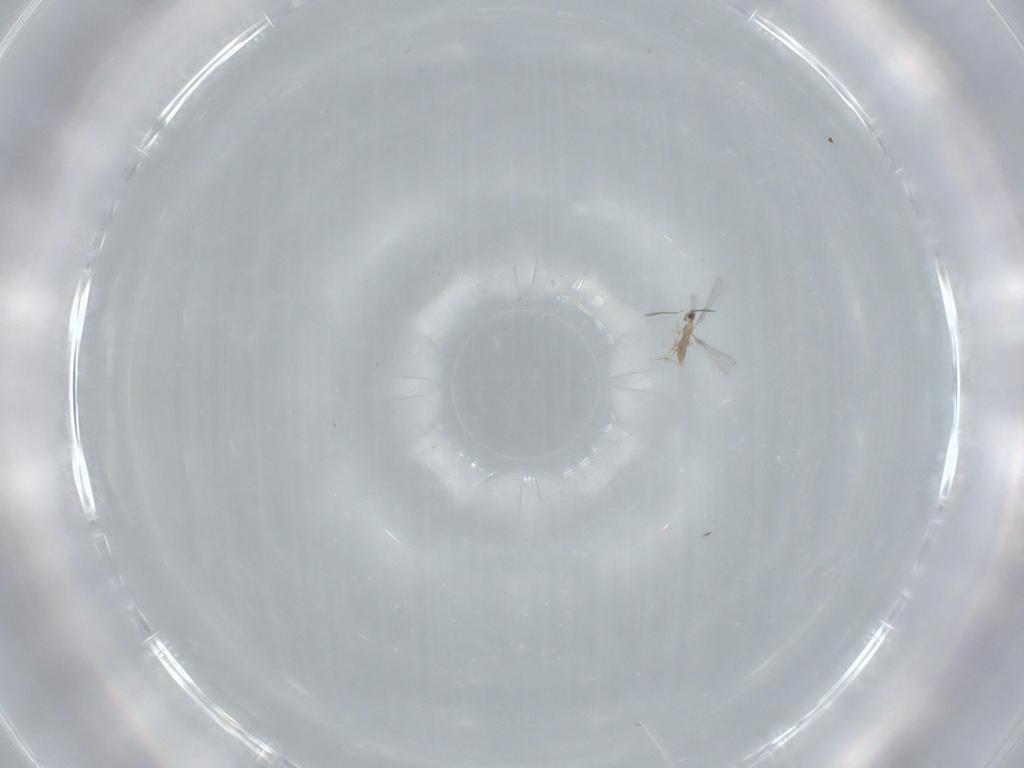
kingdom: Animalia
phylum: Arthropoda
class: Insecta
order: Hymenoptera
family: Mymaridae
